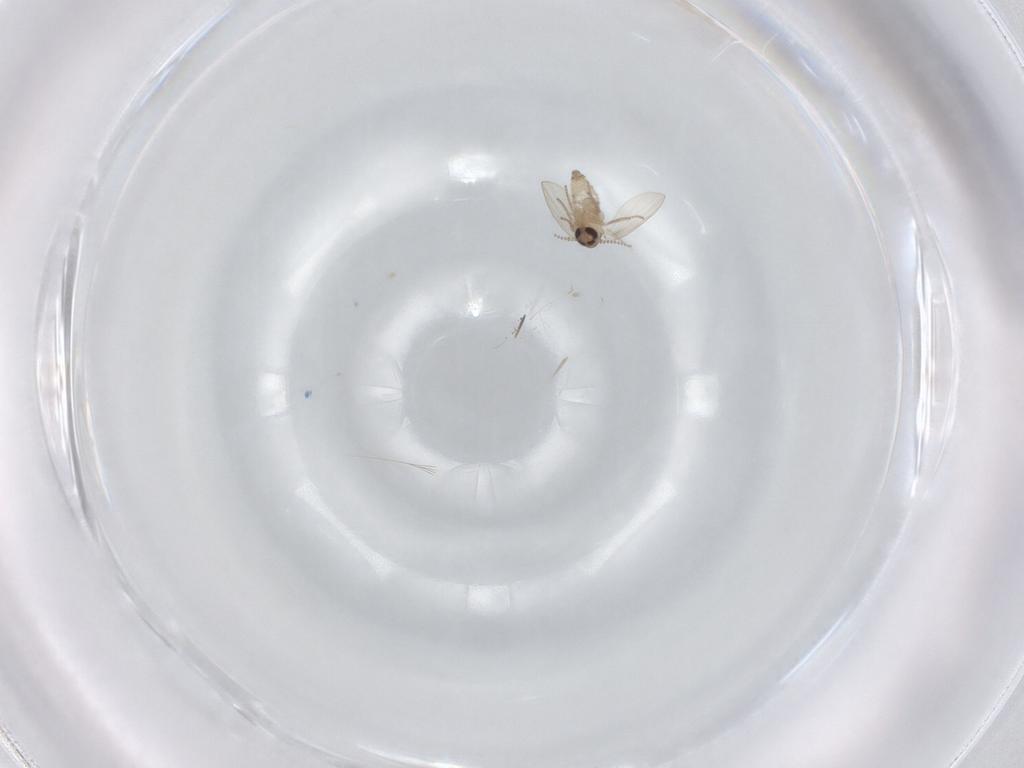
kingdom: Animalia
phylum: Arthropoda
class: Insecta
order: Diptera
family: Psychodidae
